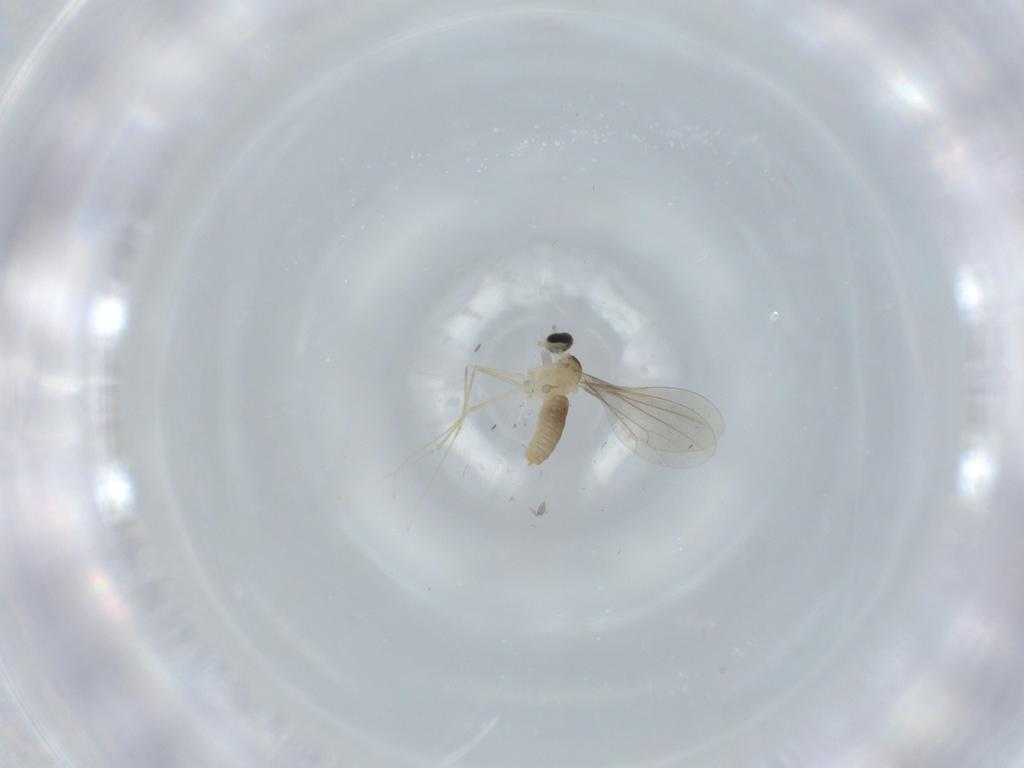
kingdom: Animalia
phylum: Arthropoda
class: Insecta
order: Diptera
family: Cecidomyiidae
